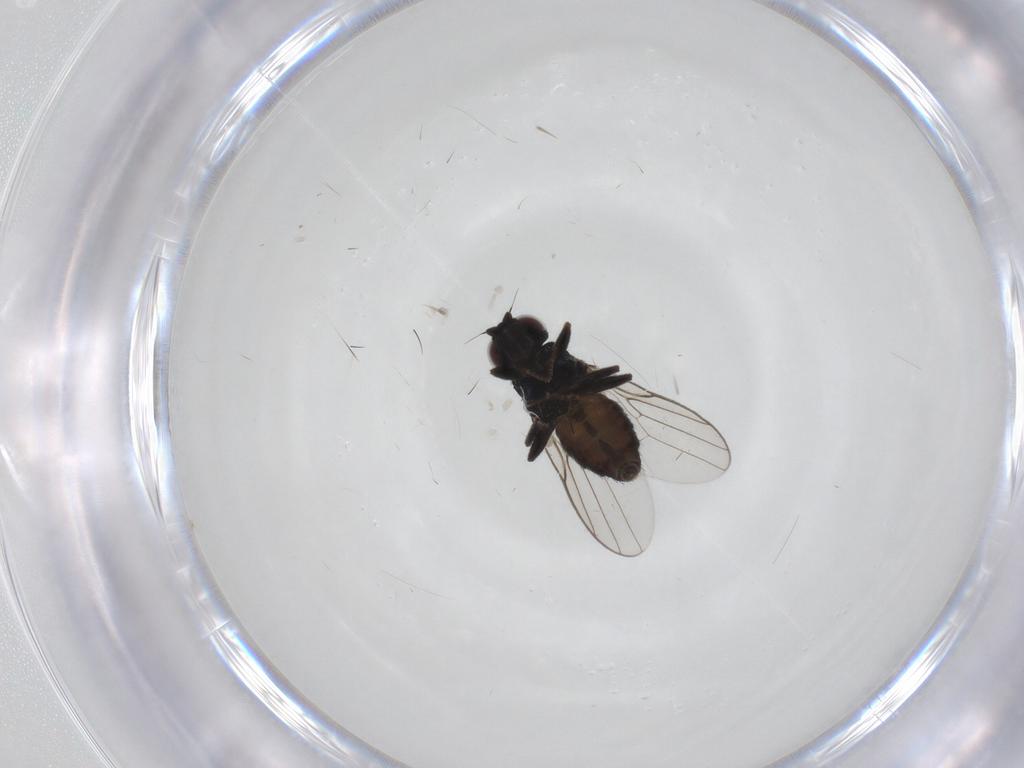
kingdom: Animalia
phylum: Arthropoda
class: Insecta
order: Diptera
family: Chloropidae
